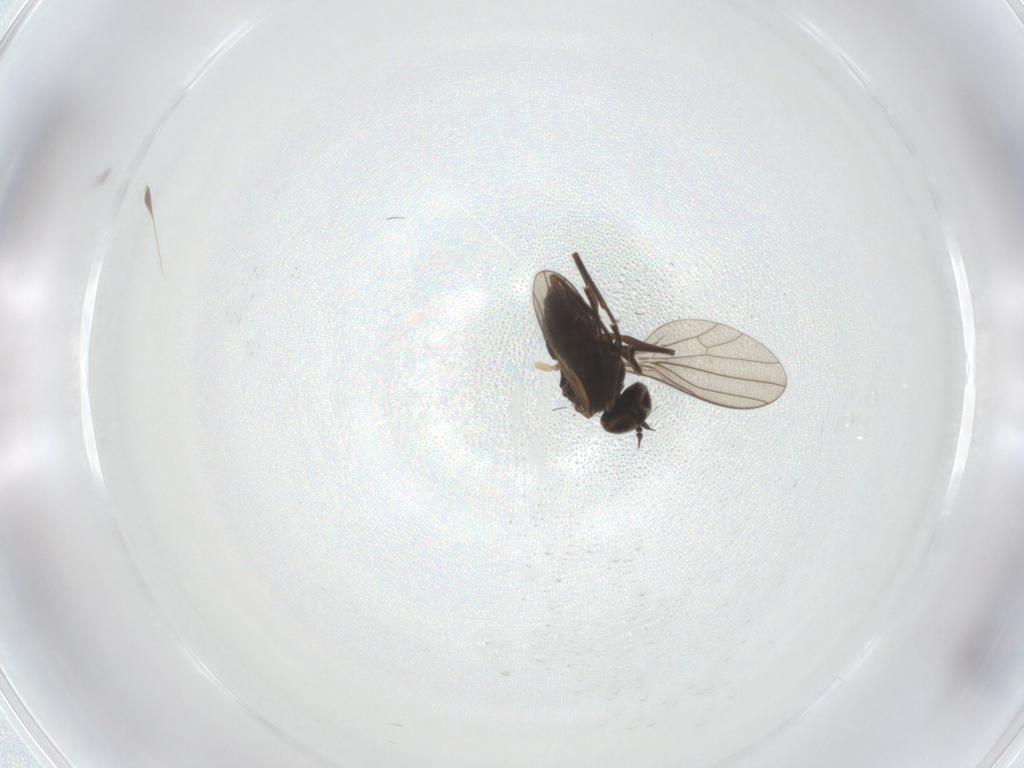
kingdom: Animalia
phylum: Arthropoda
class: Insecta
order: Diptera
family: Dolichopodidae
